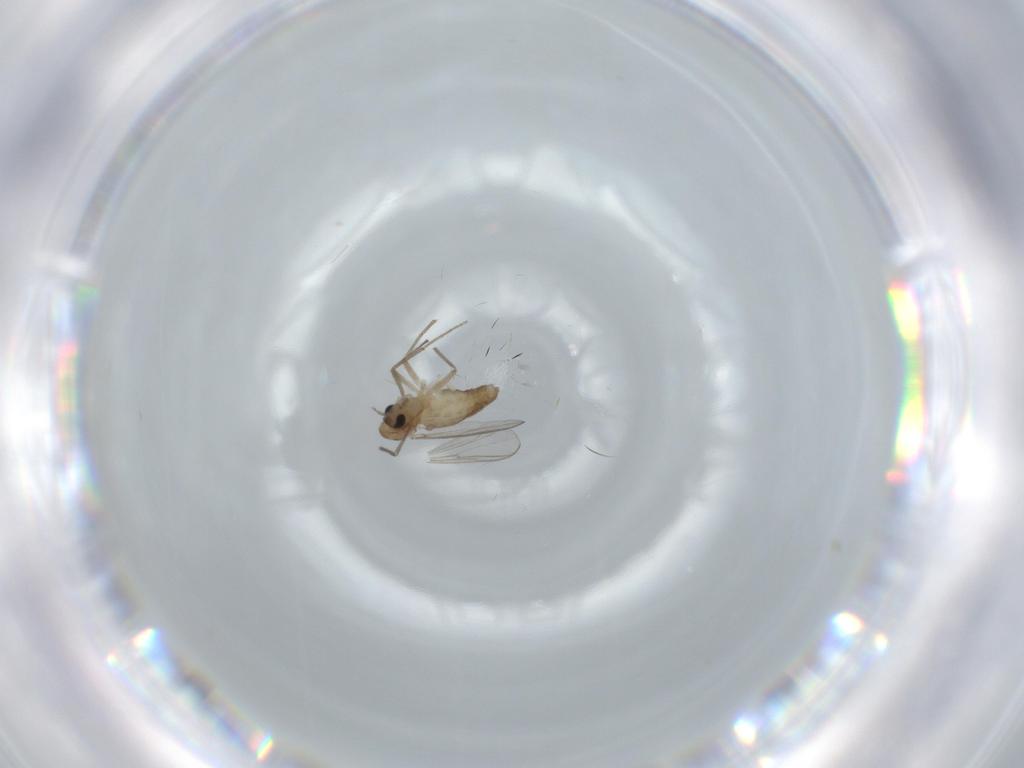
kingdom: Animalia
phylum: Arthropoda
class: Insecta
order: Diptera
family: Chironomidae
